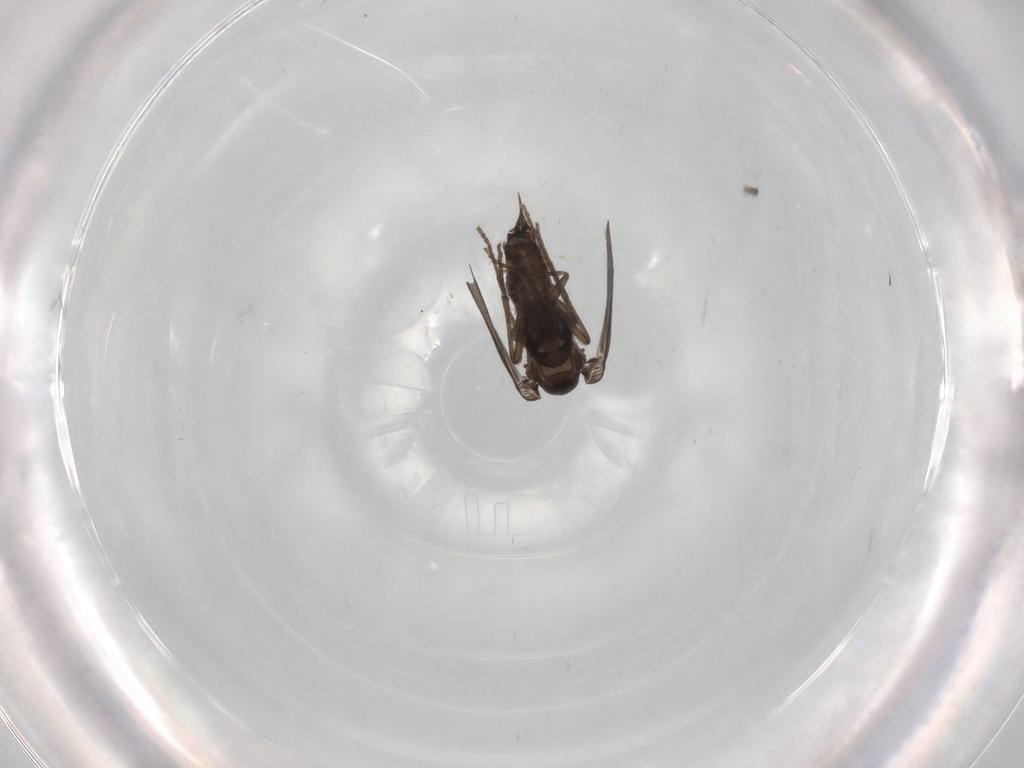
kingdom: Animalia
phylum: Arthropoda
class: Insecta
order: Diptera
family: Psychodidae
